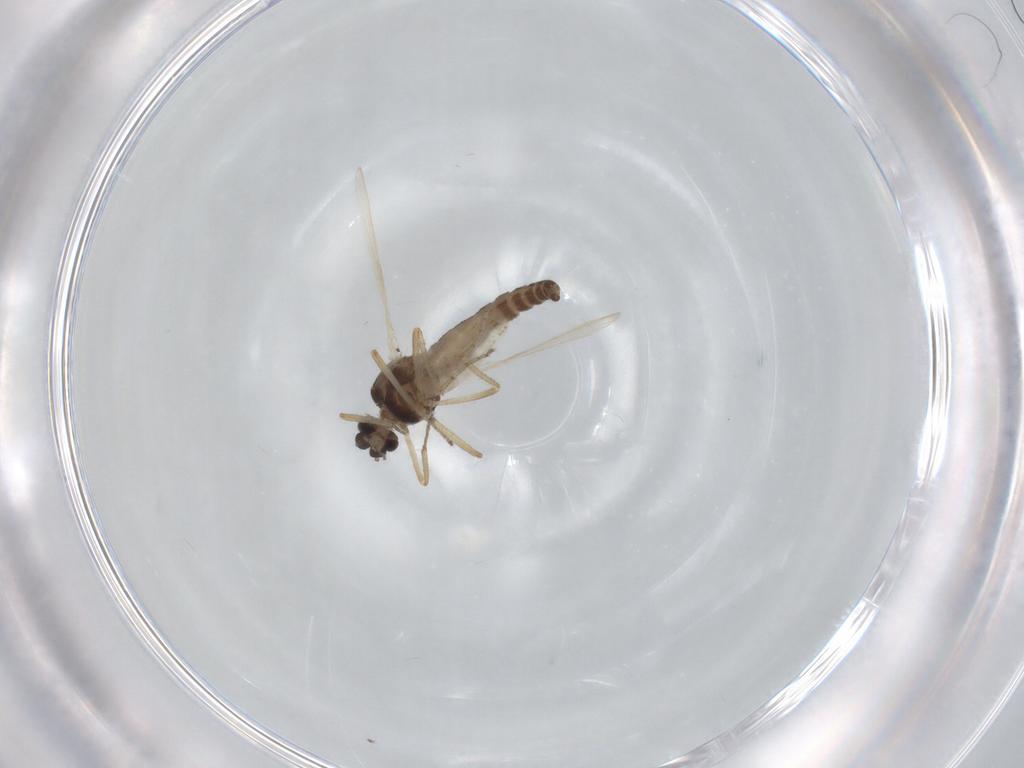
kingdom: Animalia
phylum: Arthropoda
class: Insecta
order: Diptera
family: Ceratopogonidae
